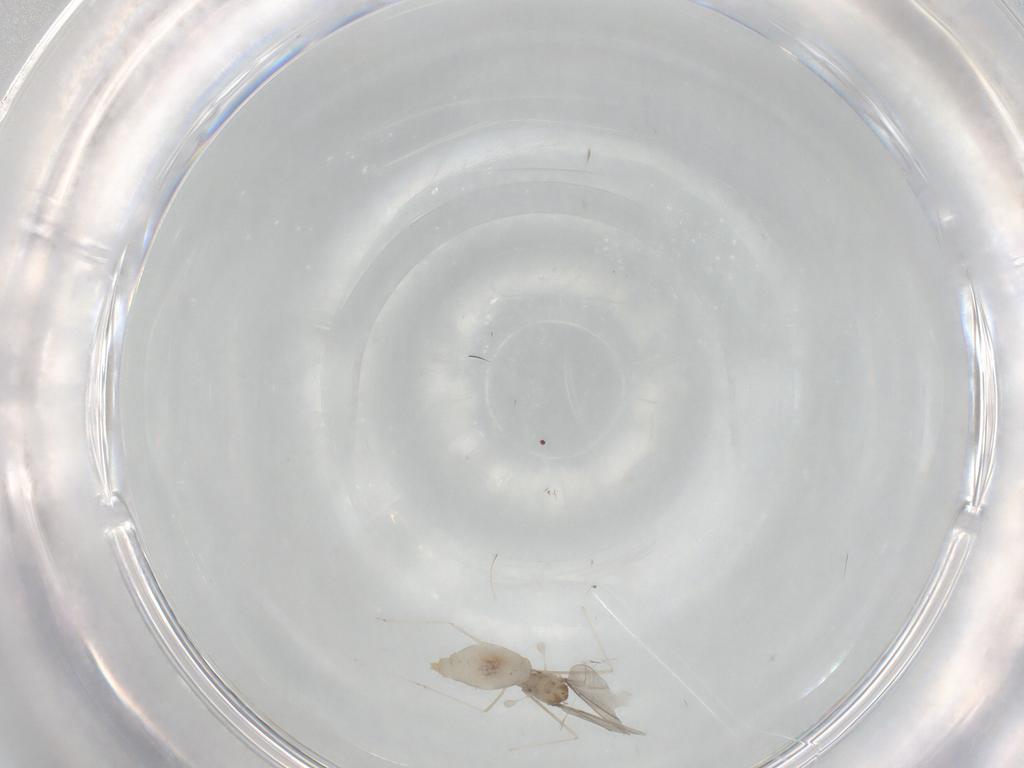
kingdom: Animalia
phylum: Arthropoda
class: Insecta
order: Diptera
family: Cecidomyiidae
